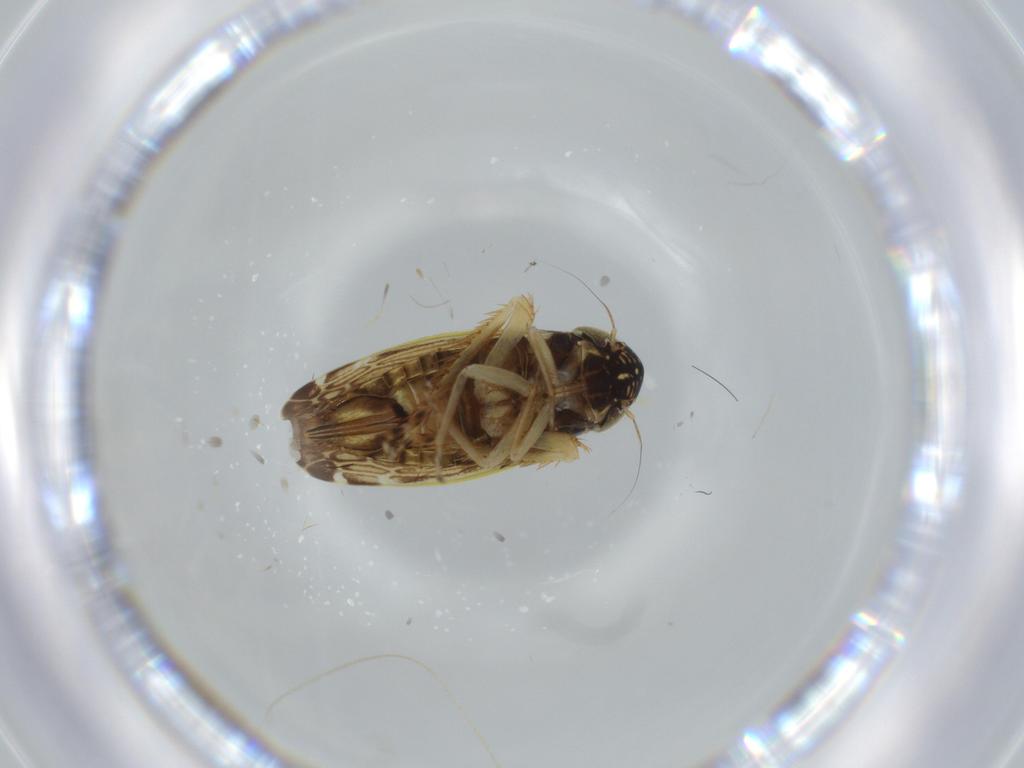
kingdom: Animalia
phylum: Arthropoda
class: Insecta
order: Hemiptera
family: Cicadellidae
